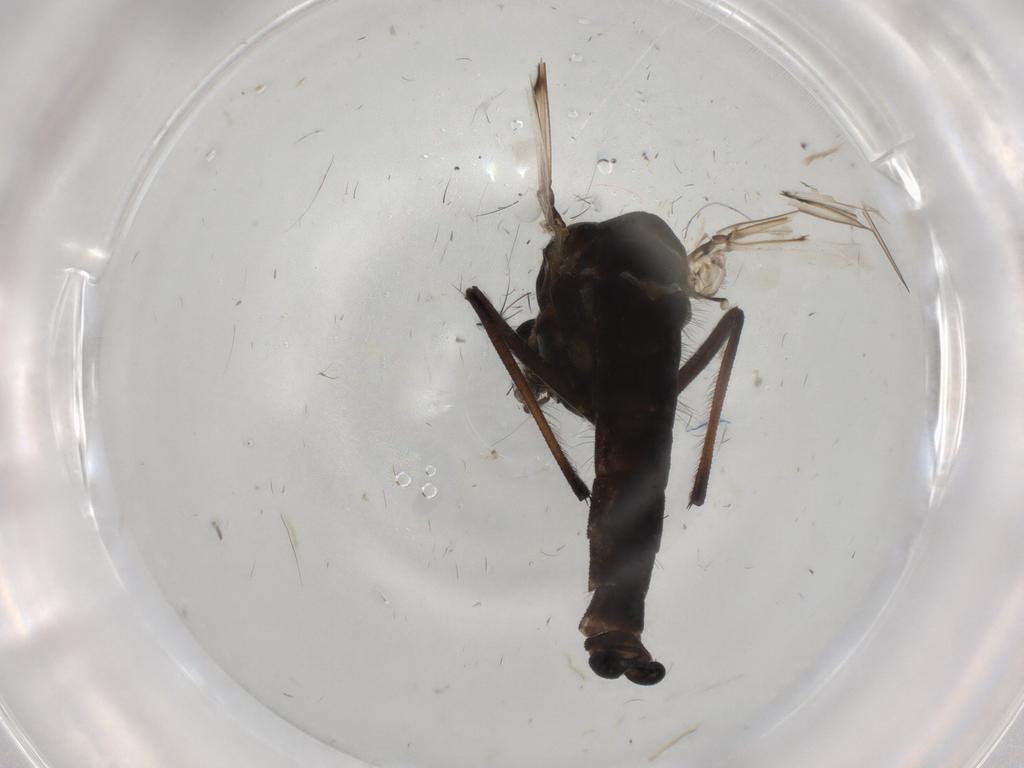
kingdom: Animalia
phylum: Arthropoda
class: Insecta
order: Diptera
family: Chironomidae
